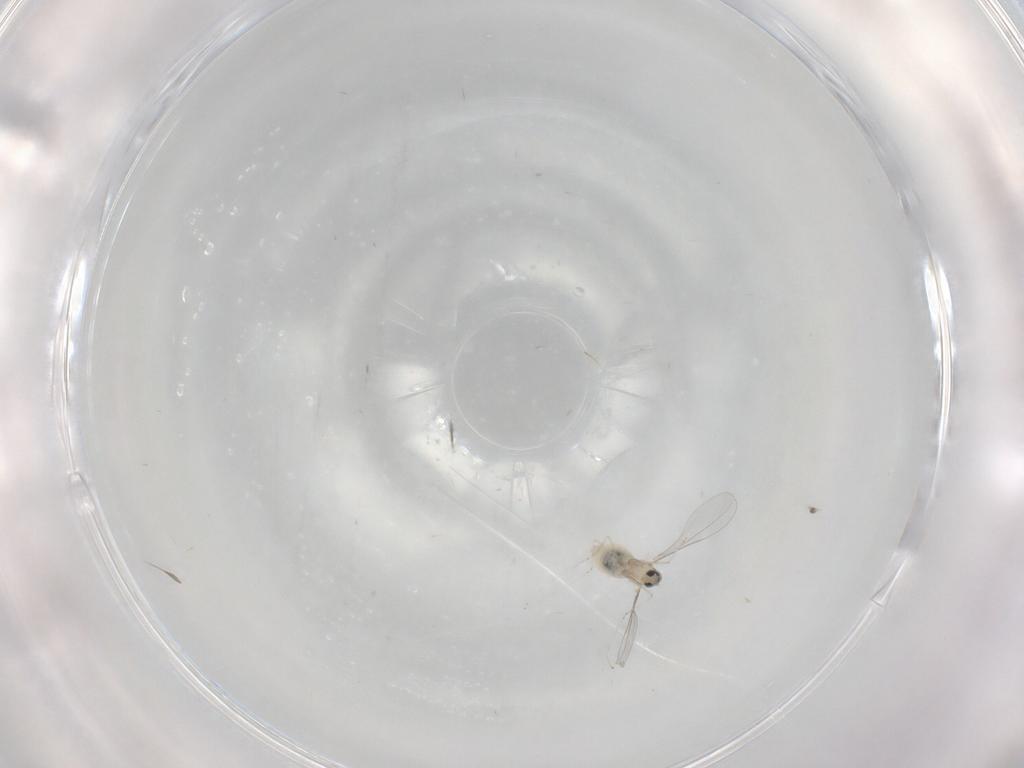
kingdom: Animalia
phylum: Arthropoda
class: Insecta
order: Diptera
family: Cecidomyiidae
